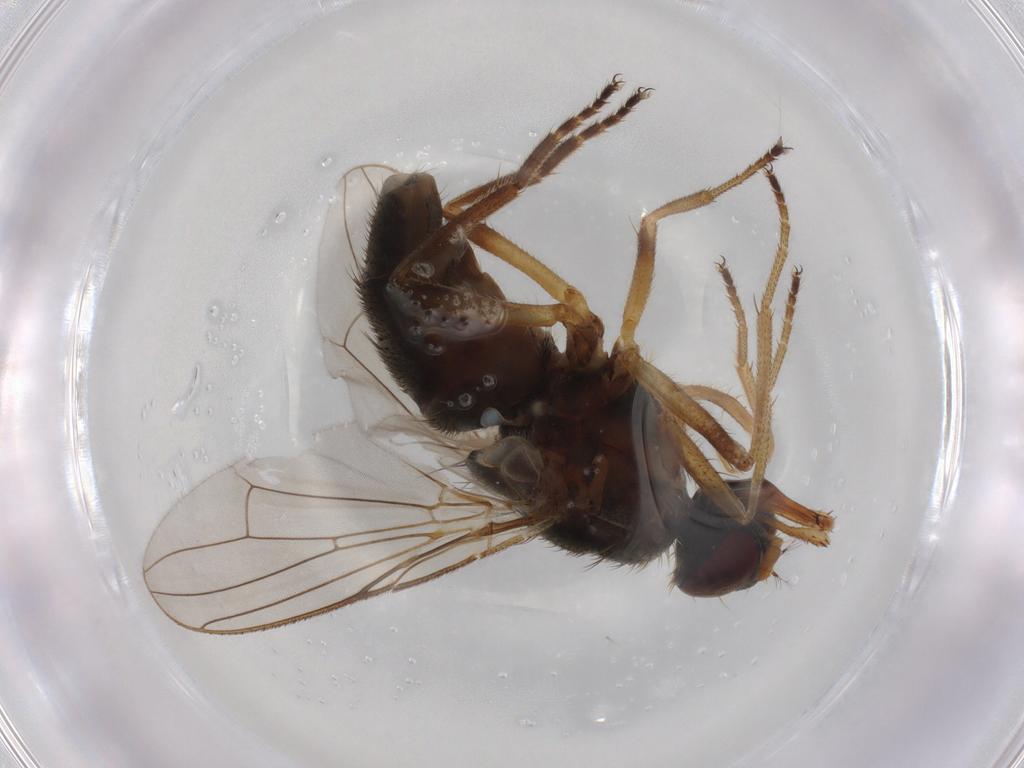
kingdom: Animalia
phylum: Arthropoda
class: Insecta
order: Diptera
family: Muscidae
